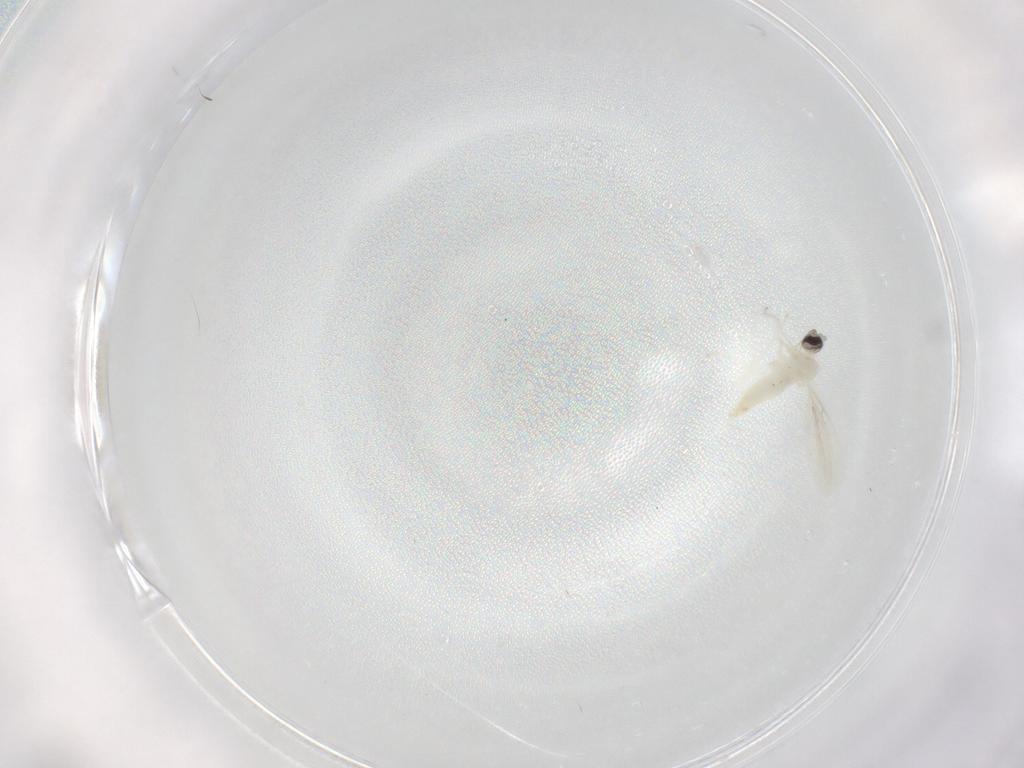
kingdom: Animalia
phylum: Arthropoda
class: Insecta
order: Diptera
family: Cecidomyiidae
